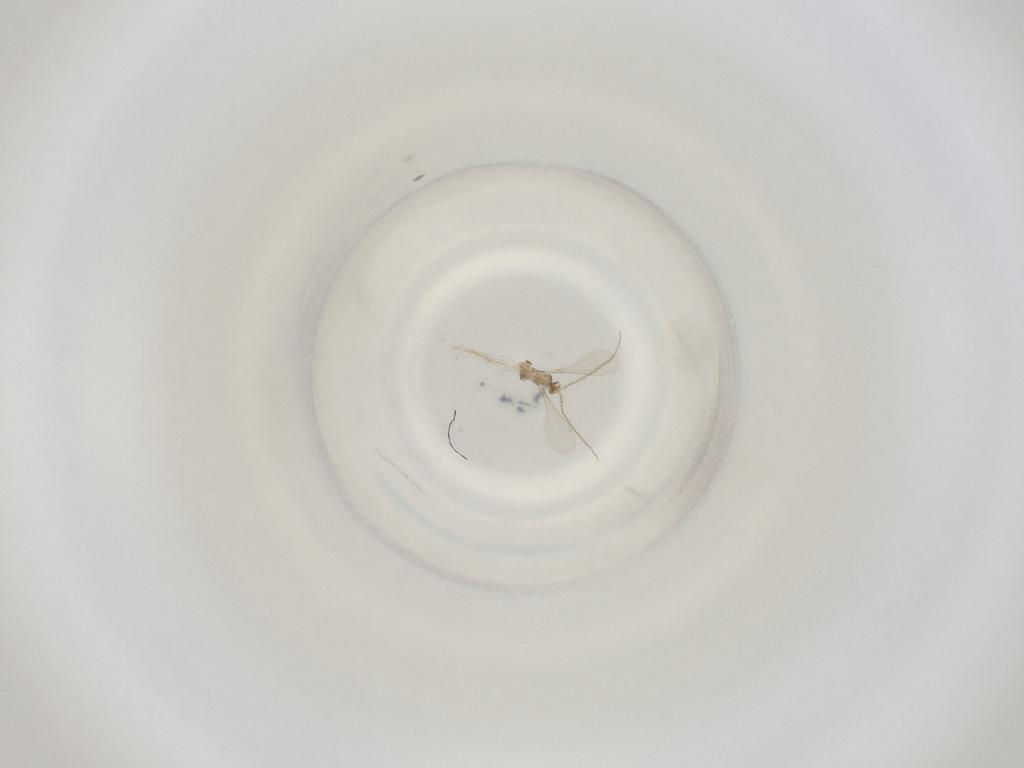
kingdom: Animalia
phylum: Arthropoda
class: Insecta
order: Diptera
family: Cecidomyiidae
